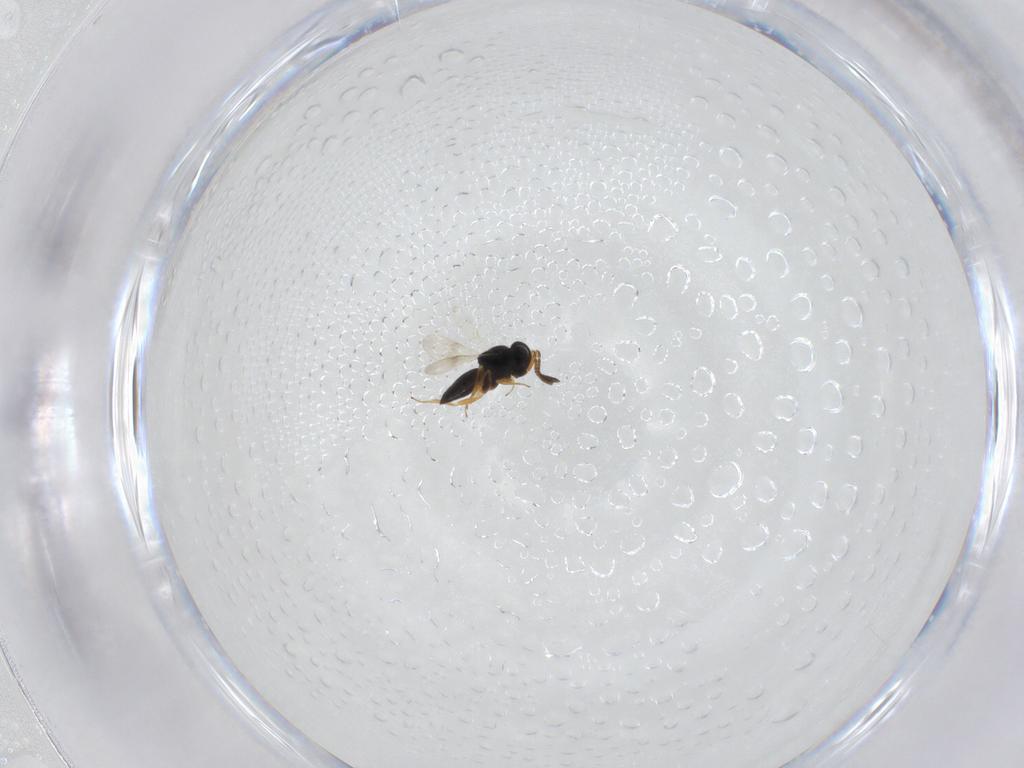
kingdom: Animalia
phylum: Arthropoda
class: Insecta
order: Hymenoptera
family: Scelionidae
